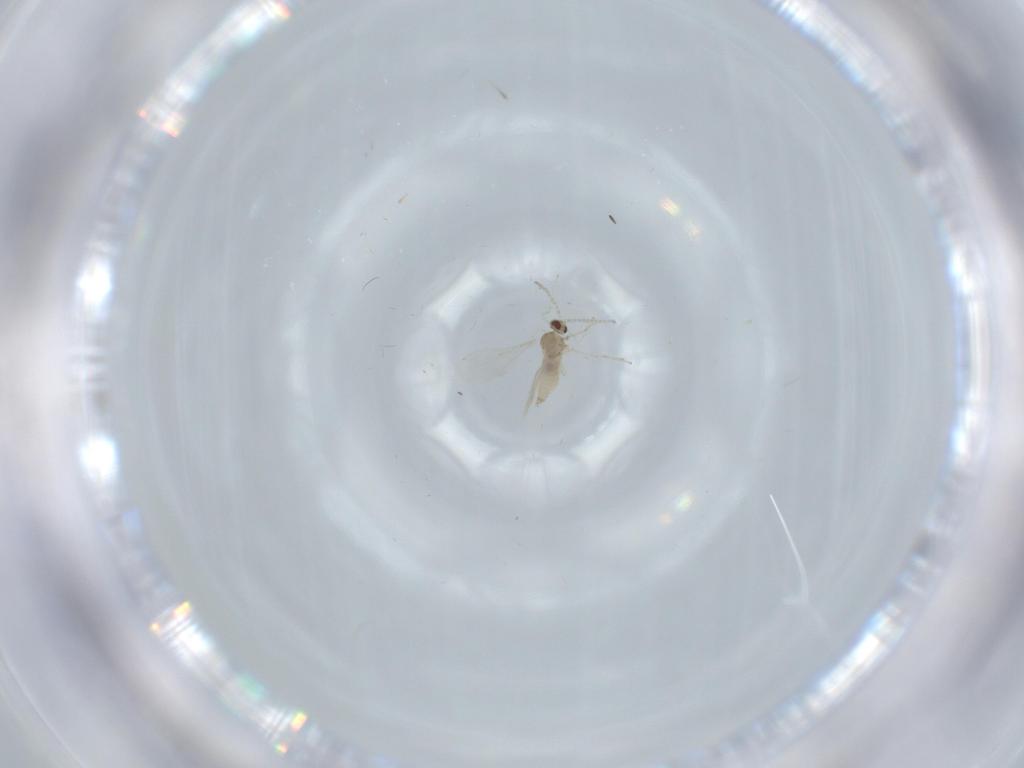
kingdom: Animalia
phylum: Arthropoda
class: Insecta
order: Diptera
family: Cecidomyiidae
